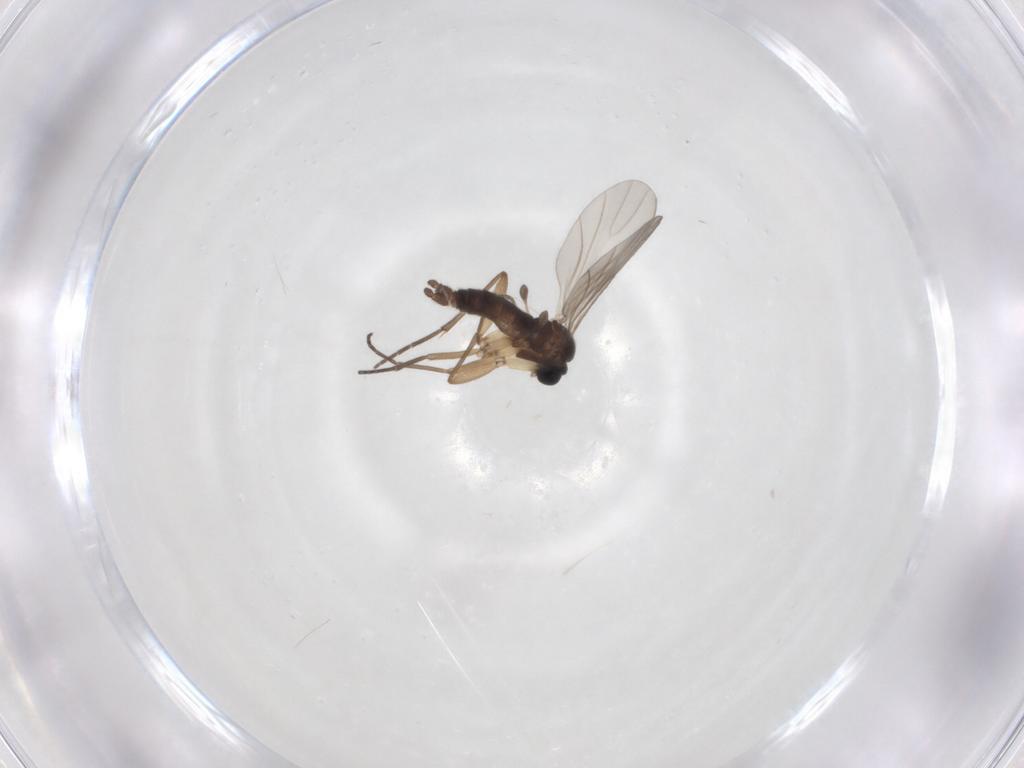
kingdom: Animalia
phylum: Arthropoda
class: Insecta
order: Diptera
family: Sciaridae
